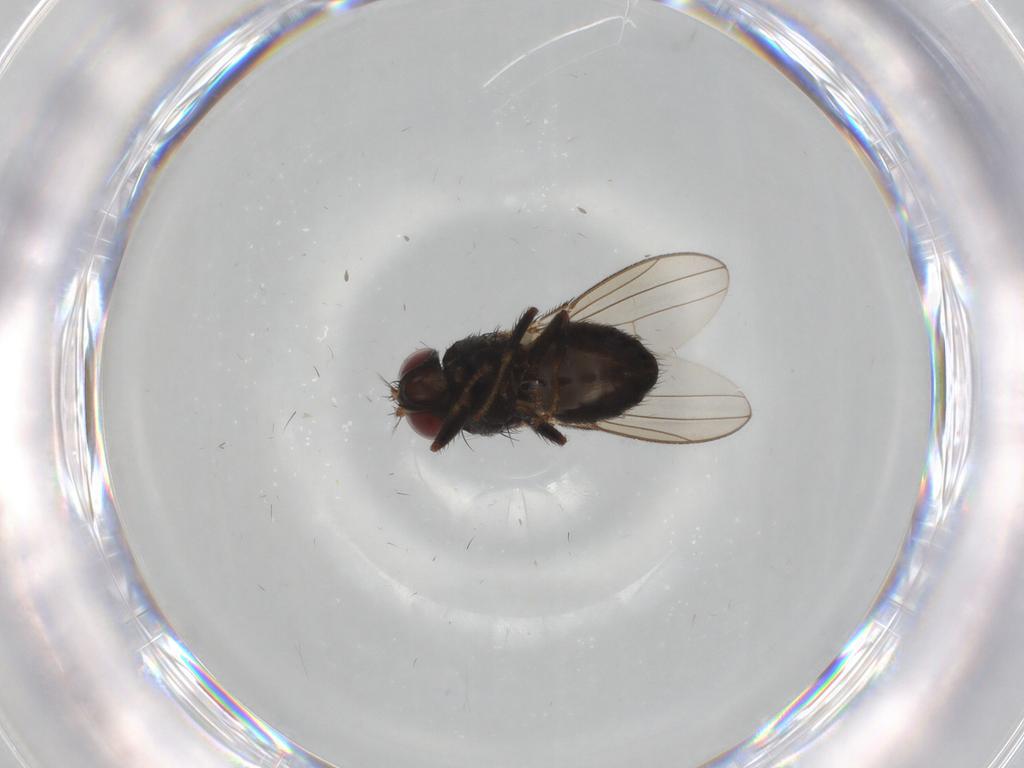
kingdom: Animalia
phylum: Arthropoda
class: Insecta
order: Diptera
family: Ephydridae
